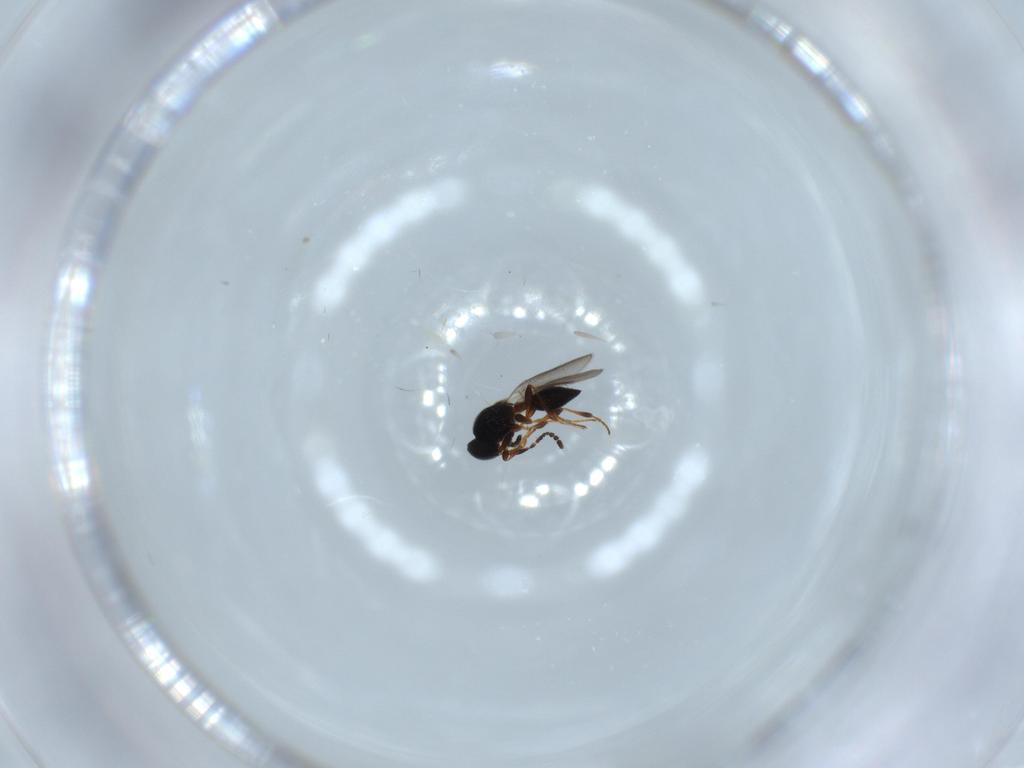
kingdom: Animalia
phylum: Arthropoda
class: Insecta
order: Hymenoptera
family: Platygastridae
